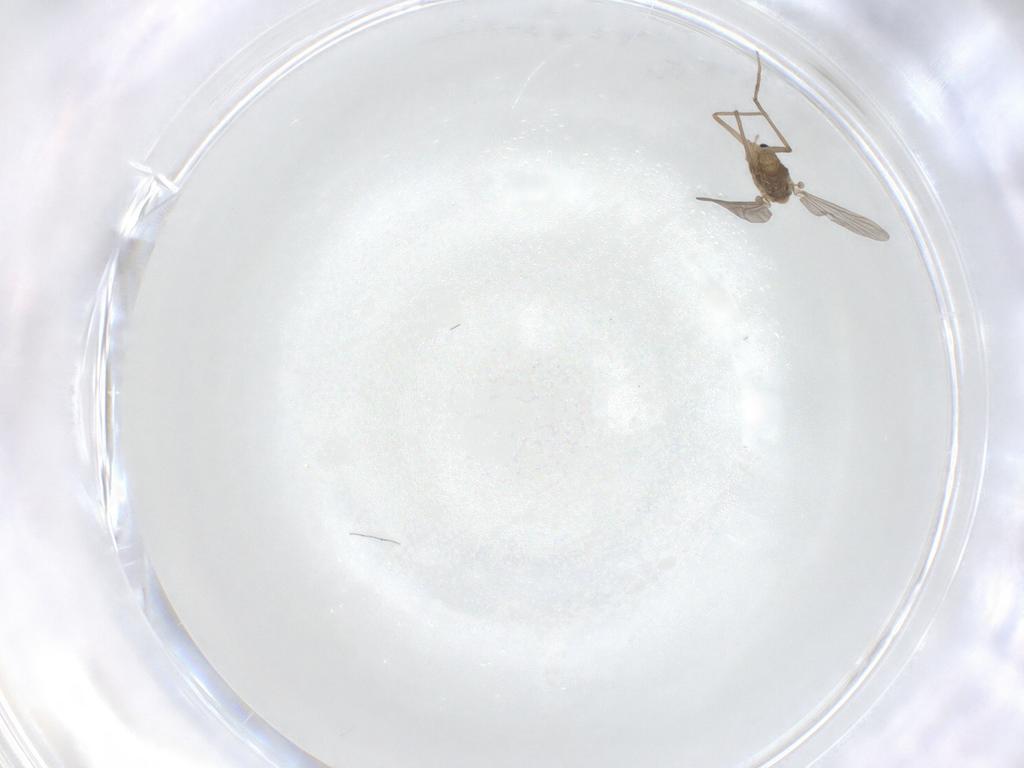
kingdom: Animalia
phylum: Arthropoda
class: Insecta
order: Diptera
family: Chironomidae
